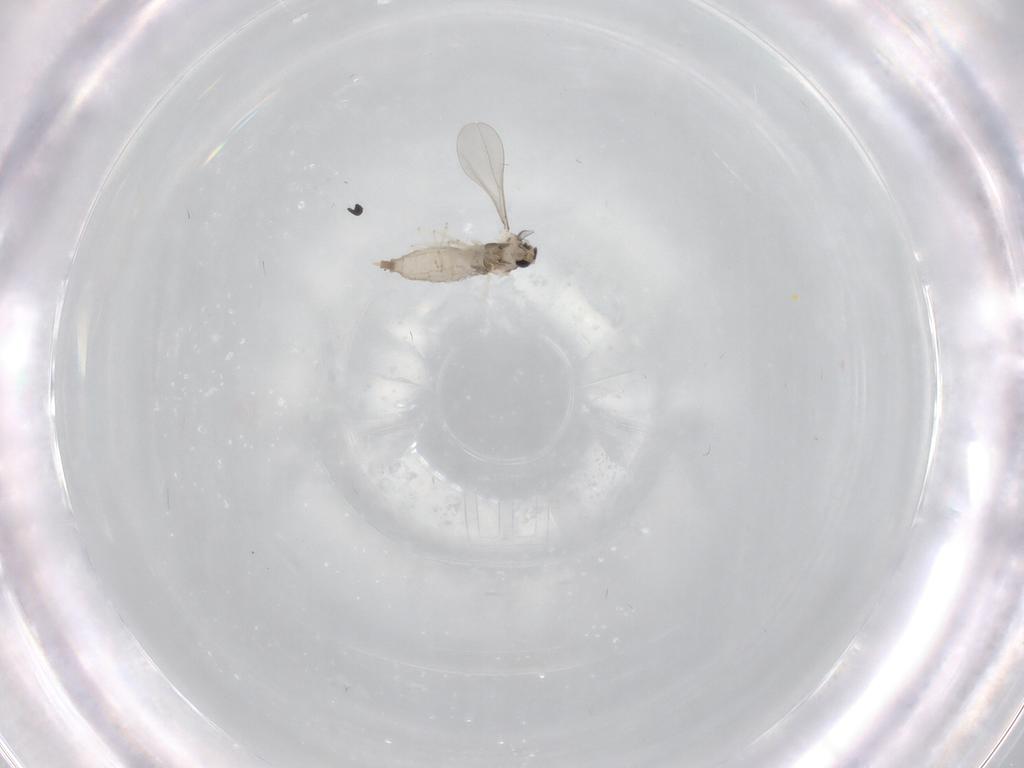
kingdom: Animalia
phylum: Arthropoda
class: Insecta
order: Diptera
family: Cecidomyiidae
